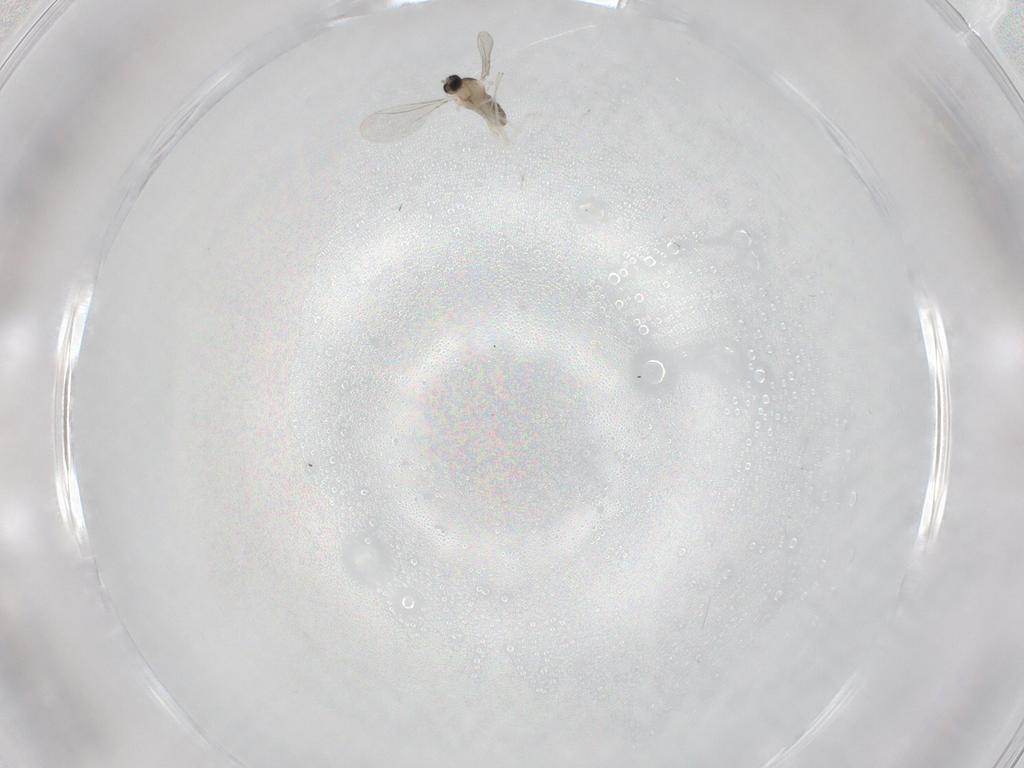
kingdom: Animalia
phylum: Arthropoda
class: Insecta
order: Diptera
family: Cecidomyiidae
